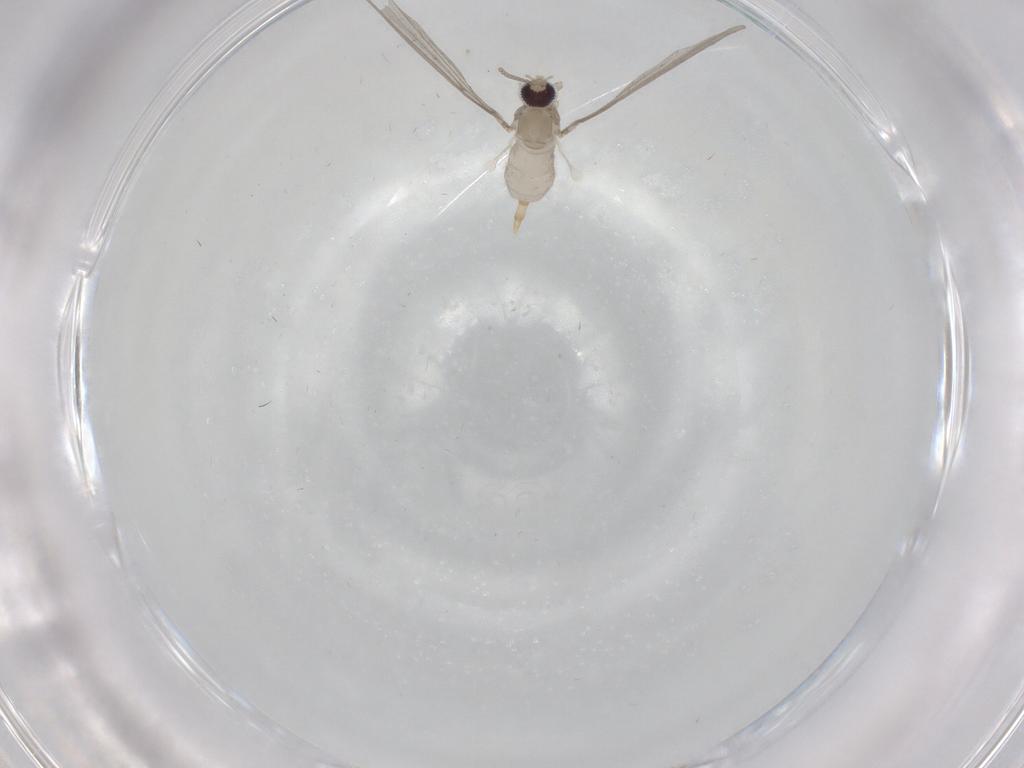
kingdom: Animalia
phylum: Arthropoda
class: Insecta
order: Diptera
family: Cecidomyiidae
